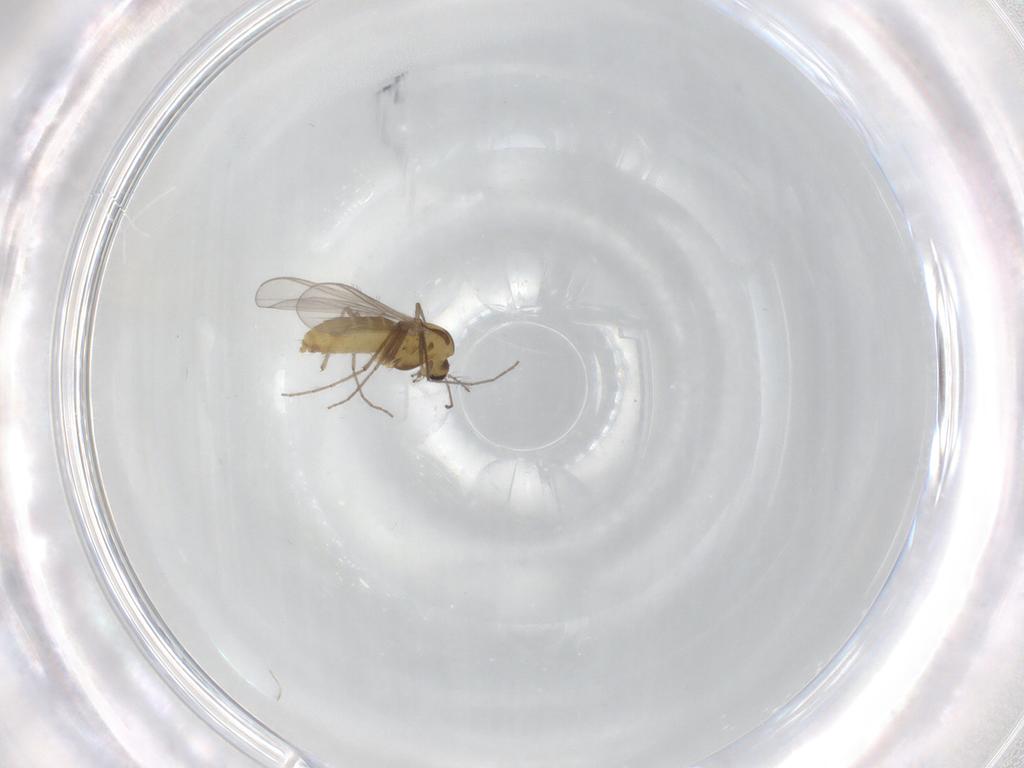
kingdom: Animalia
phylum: Arthropoda
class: Insecta
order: Diptera
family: Chironomidae
